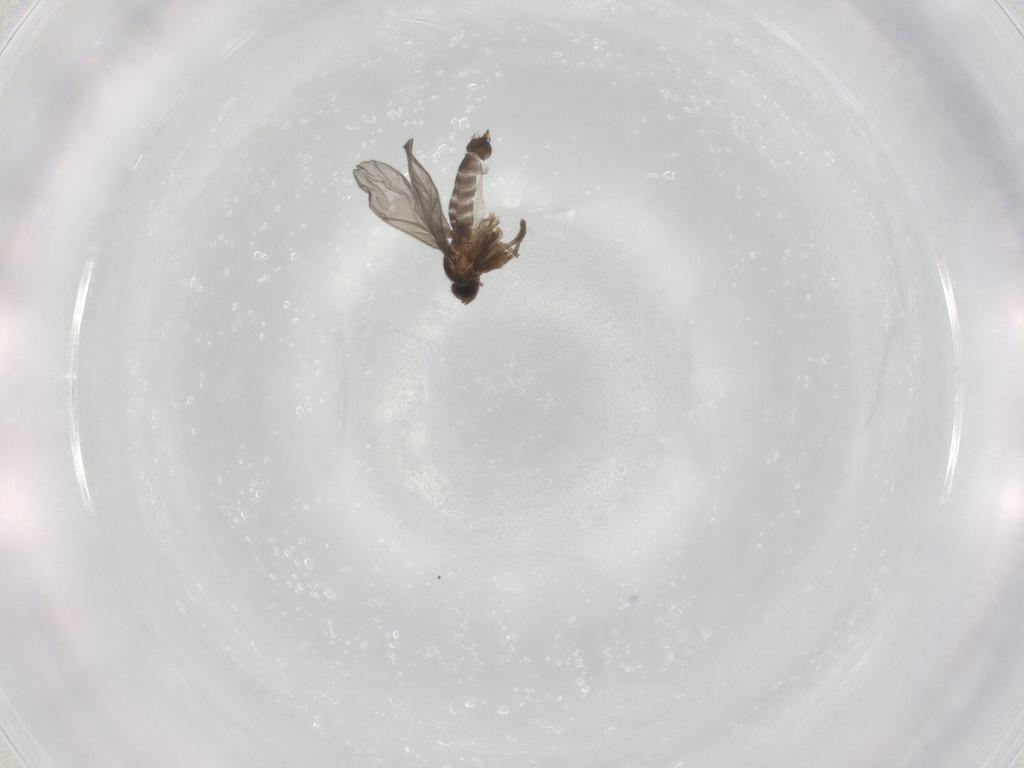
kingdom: Animalia
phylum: Arthropoda
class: Insecta
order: Diptera
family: Phoridae
